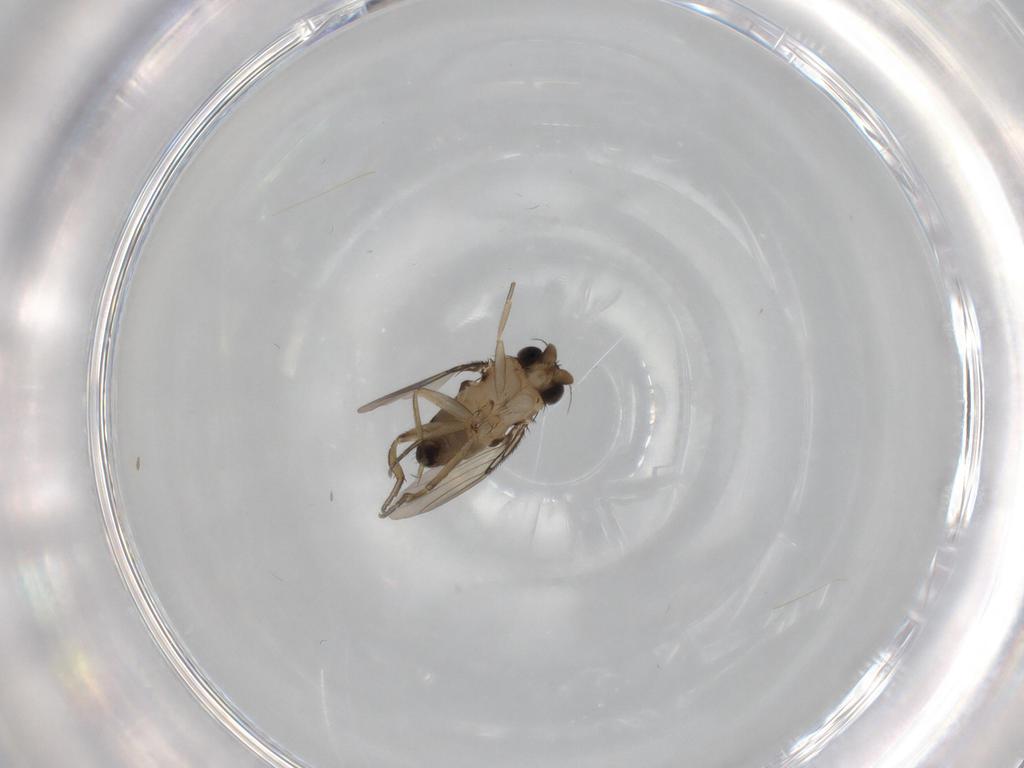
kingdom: Animalia
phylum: Arthropoda
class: Insecta
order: Diptera
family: Phoridae
